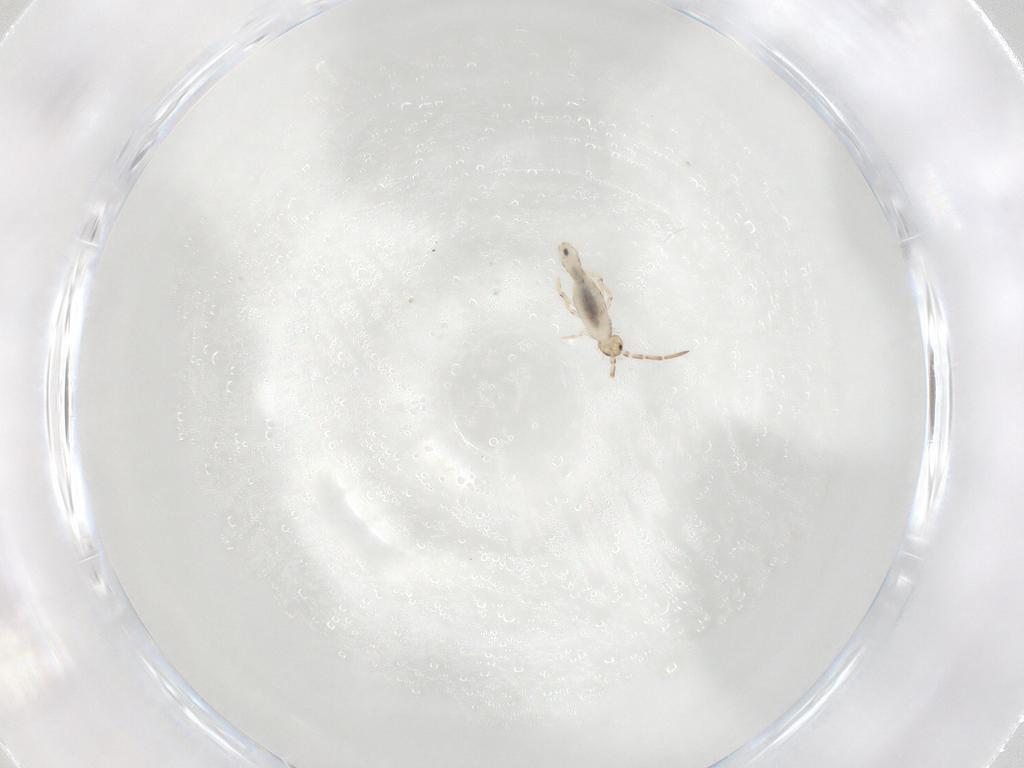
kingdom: Animalia
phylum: Arthropoda
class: Collembola
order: Entomobryomorpha
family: Entomobryidae
